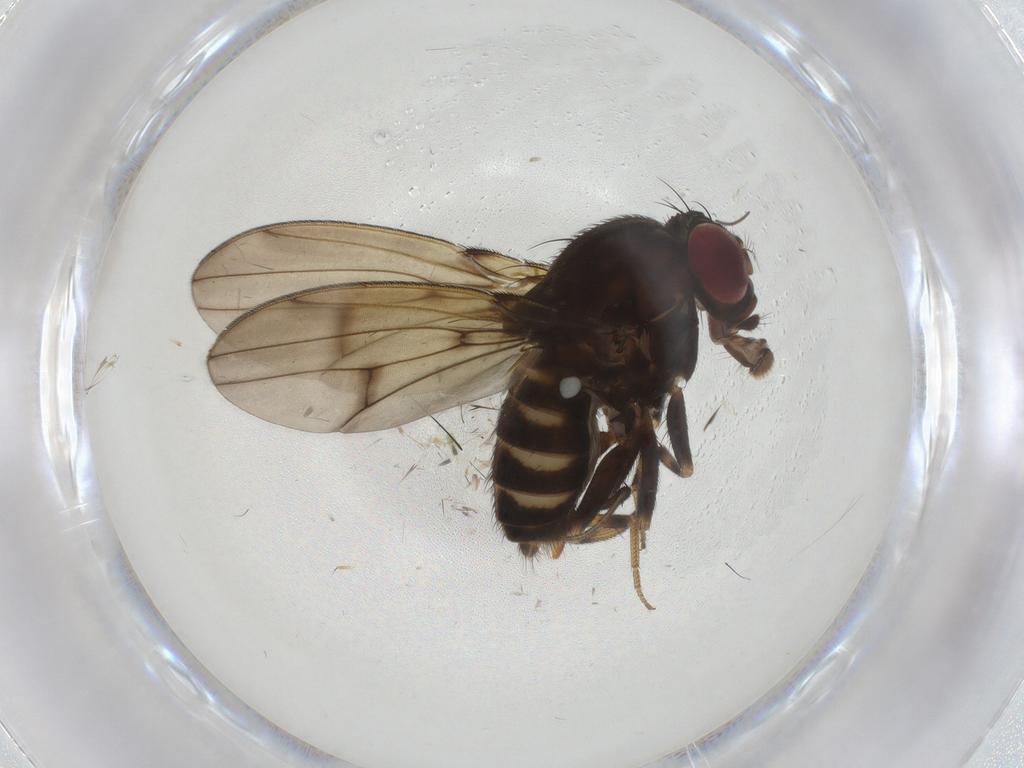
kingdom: Animalia
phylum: Arthropoda
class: Insecta
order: Diptera
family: Drosophilidae
